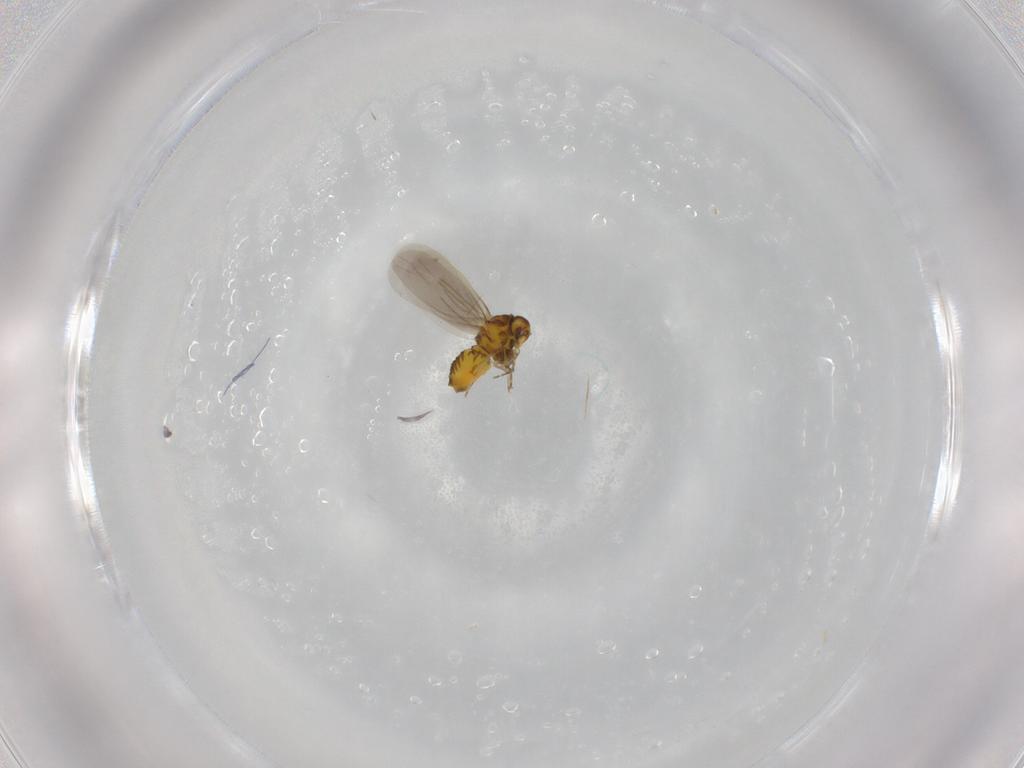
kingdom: Animalia
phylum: Arthropoda
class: Insecta
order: Hemiptera
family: Aleyrodidae
